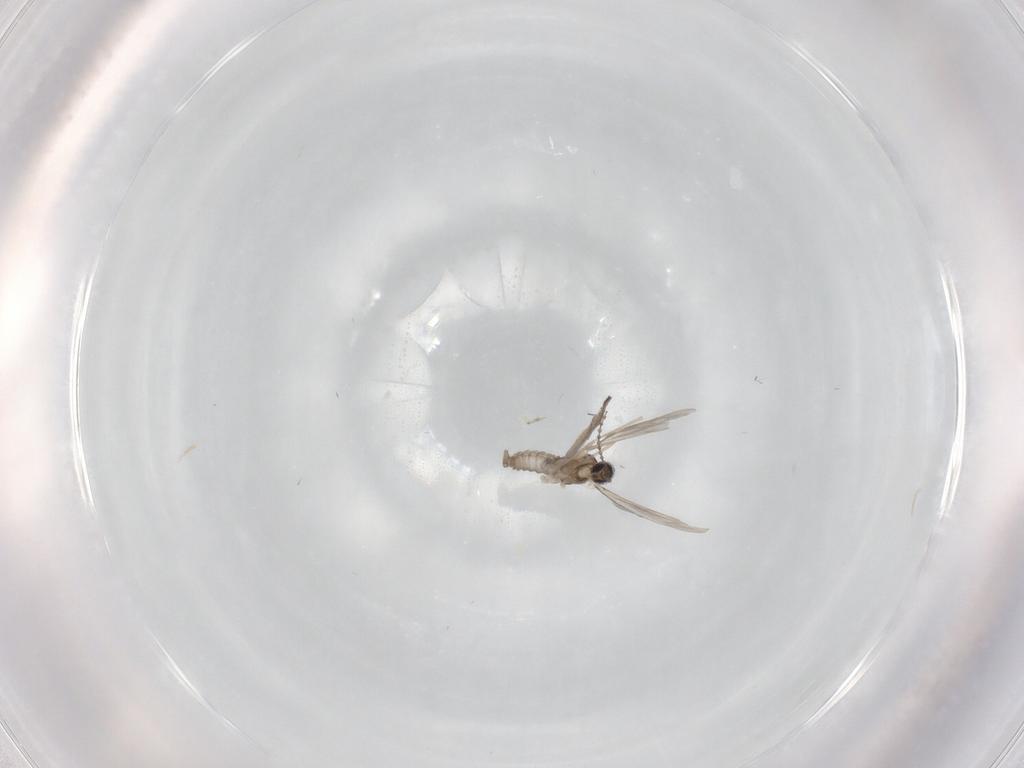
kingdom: Animalia
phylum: Arthropoda
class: Insecta
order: Diptera
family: Cecidomyiidae
